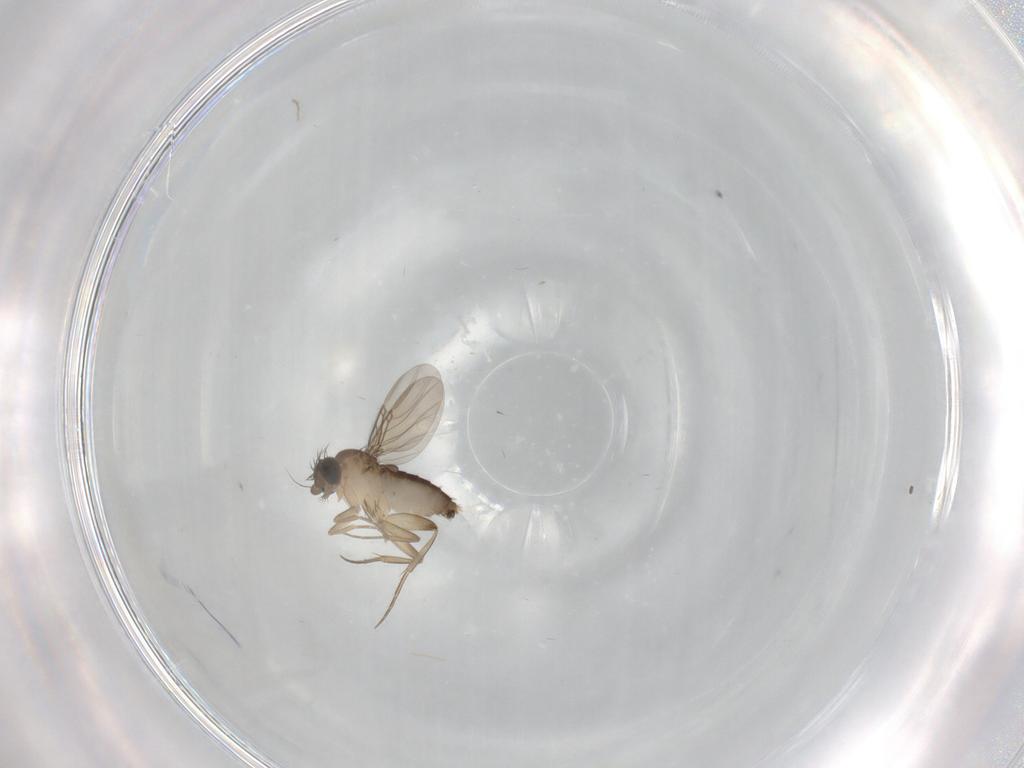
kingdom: Animalia
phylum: Arthropoda
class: Insecta
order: Diptera
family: Phoridae
